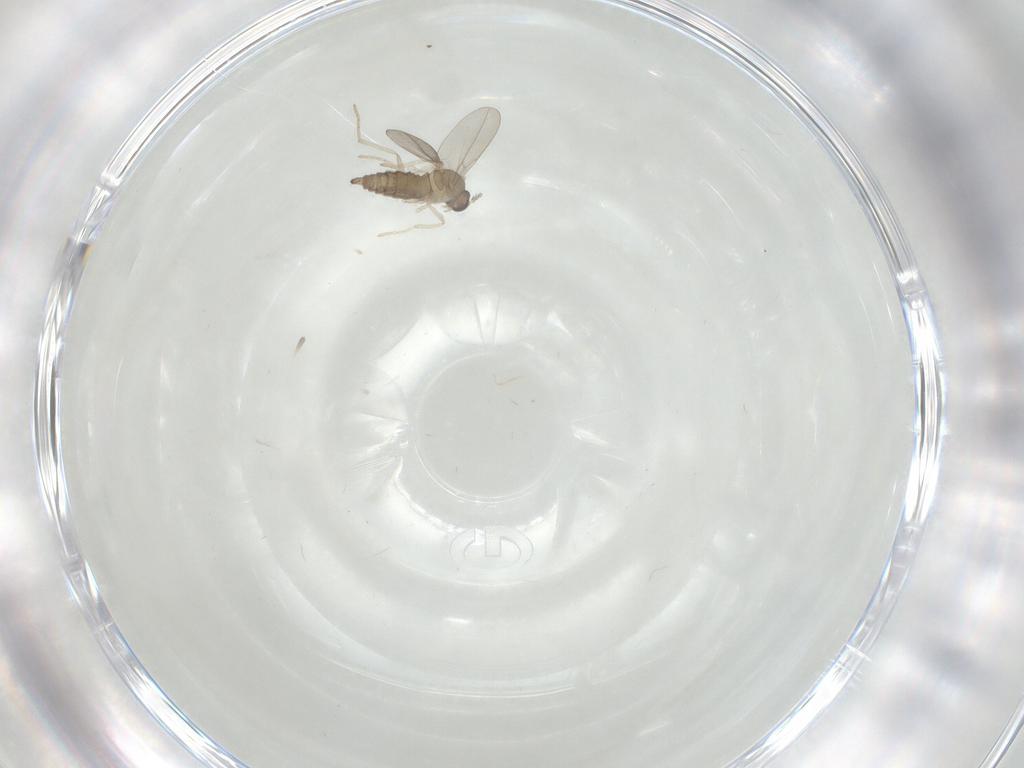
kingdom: Animalia
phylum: Arthropoda
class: Insecta
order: Diptera
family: Cecidomyiidae
